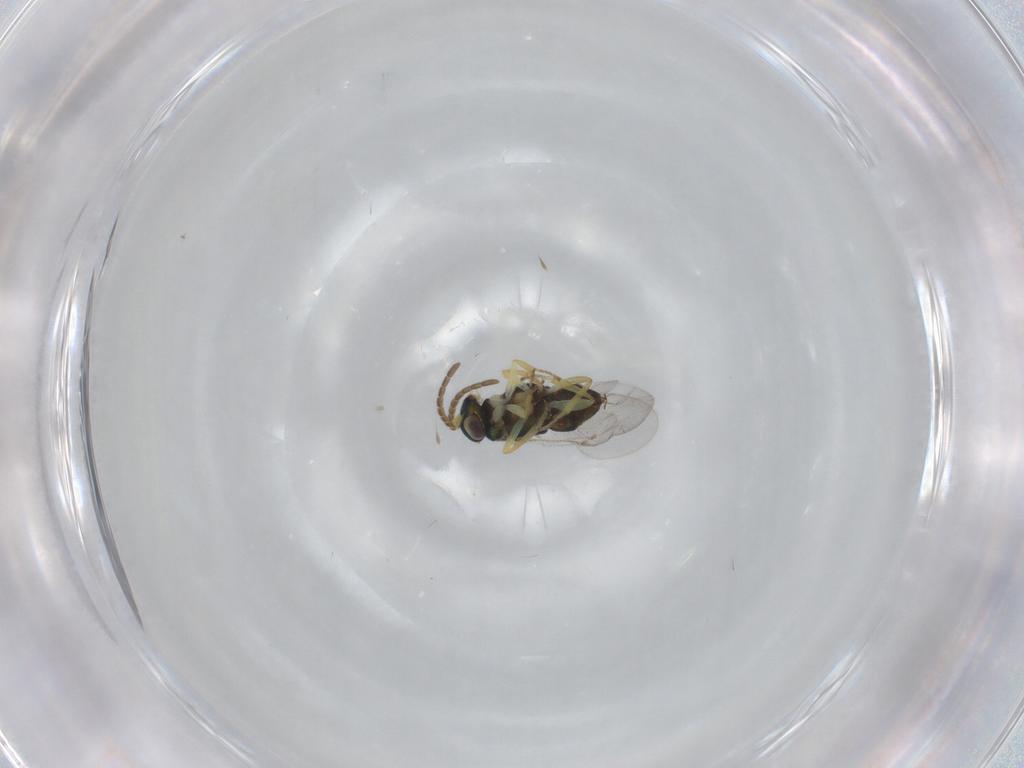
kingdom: Animalia
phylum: Arthropoda
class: Insecta
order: Hymenoptera
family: Encyrtidae
